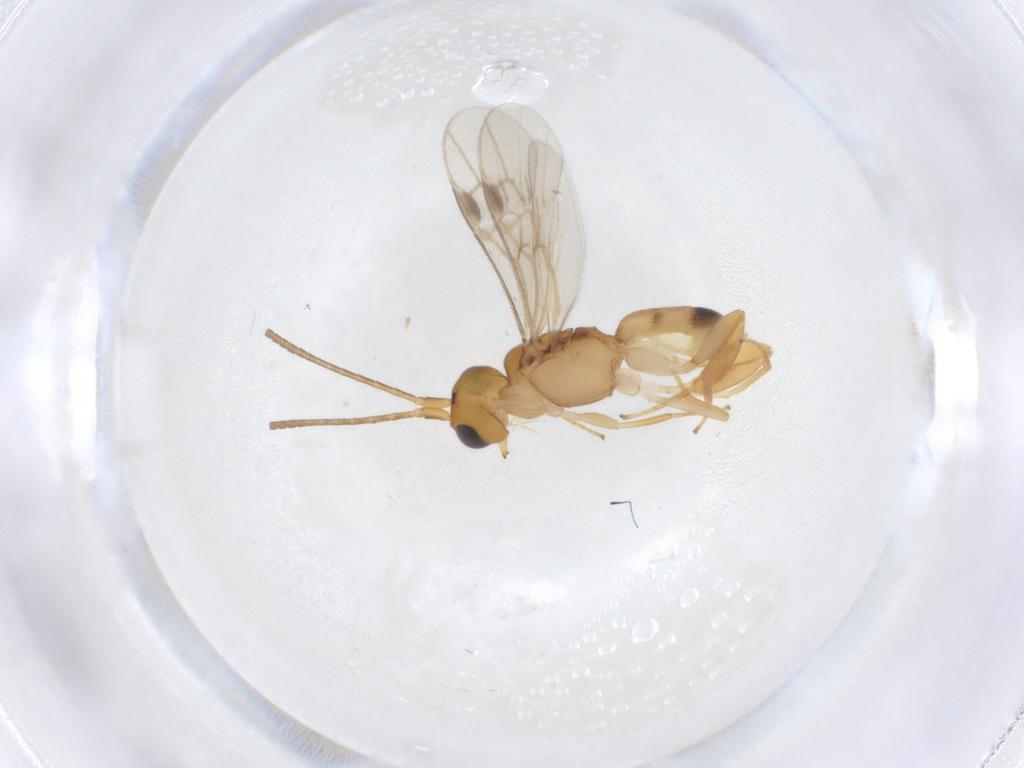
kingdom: Animalia
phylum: Arthropoda
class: Insecta
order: Hymenoptera
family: Braconidae
